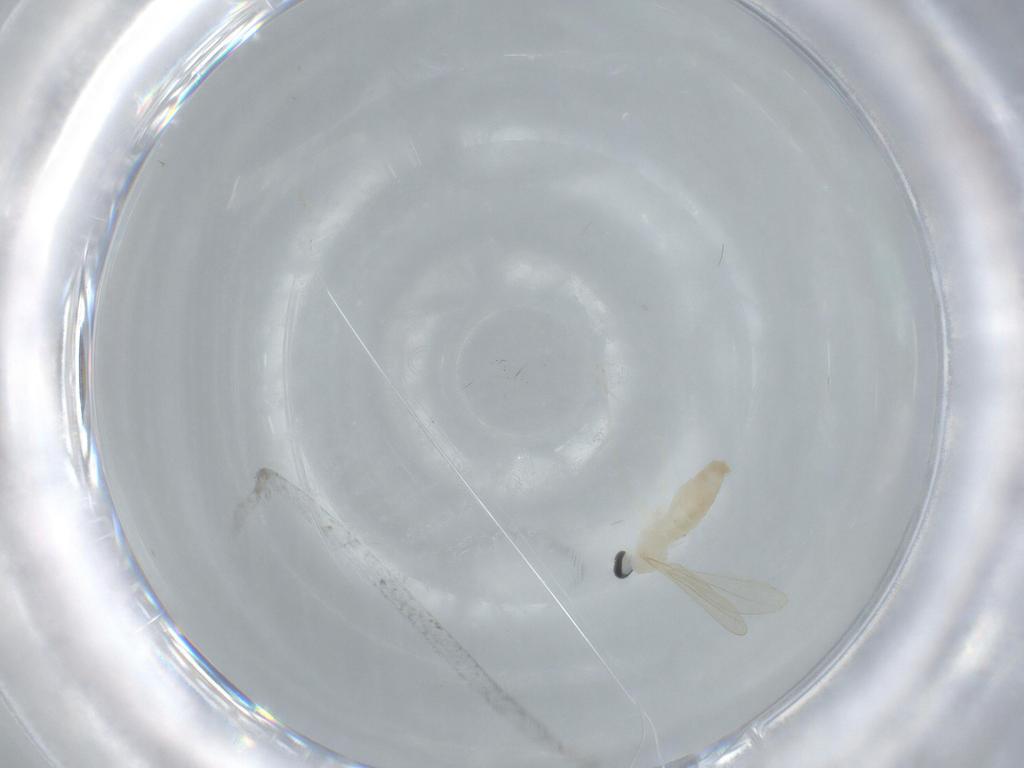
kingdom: Animalia
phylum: Arthropoda
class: Insecta
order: Diptera
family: Cecidomyiidae
